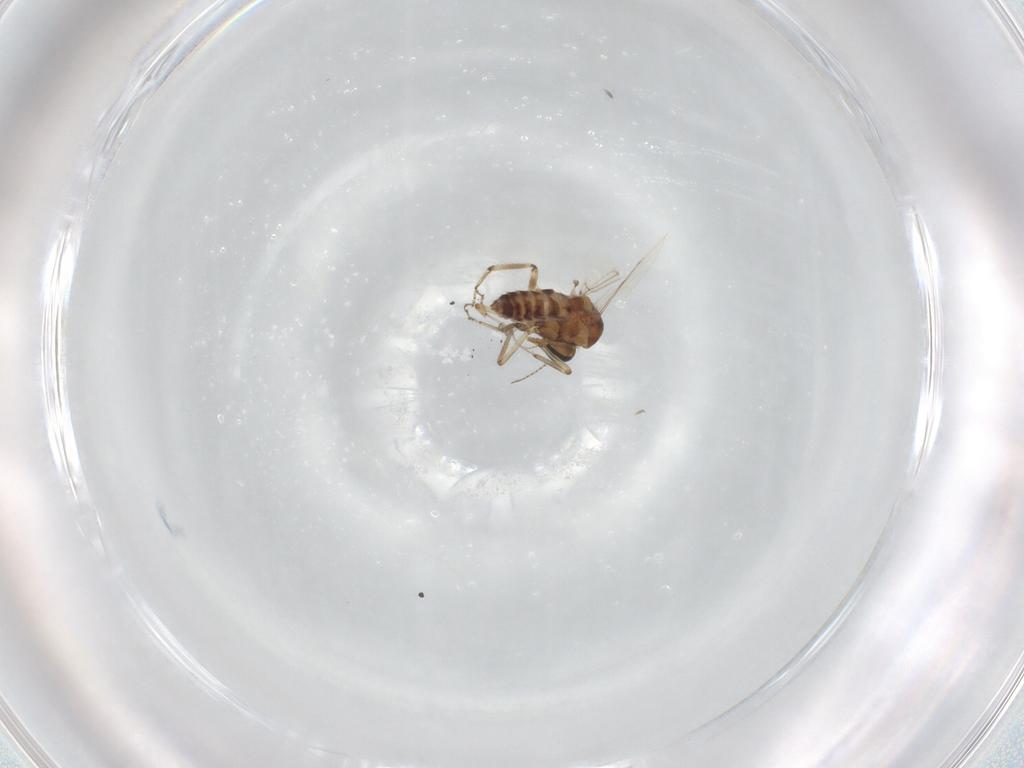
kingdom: Animalia
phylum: Arthropoda
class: Insecta
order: Diptera
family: Ceratopogonidae
